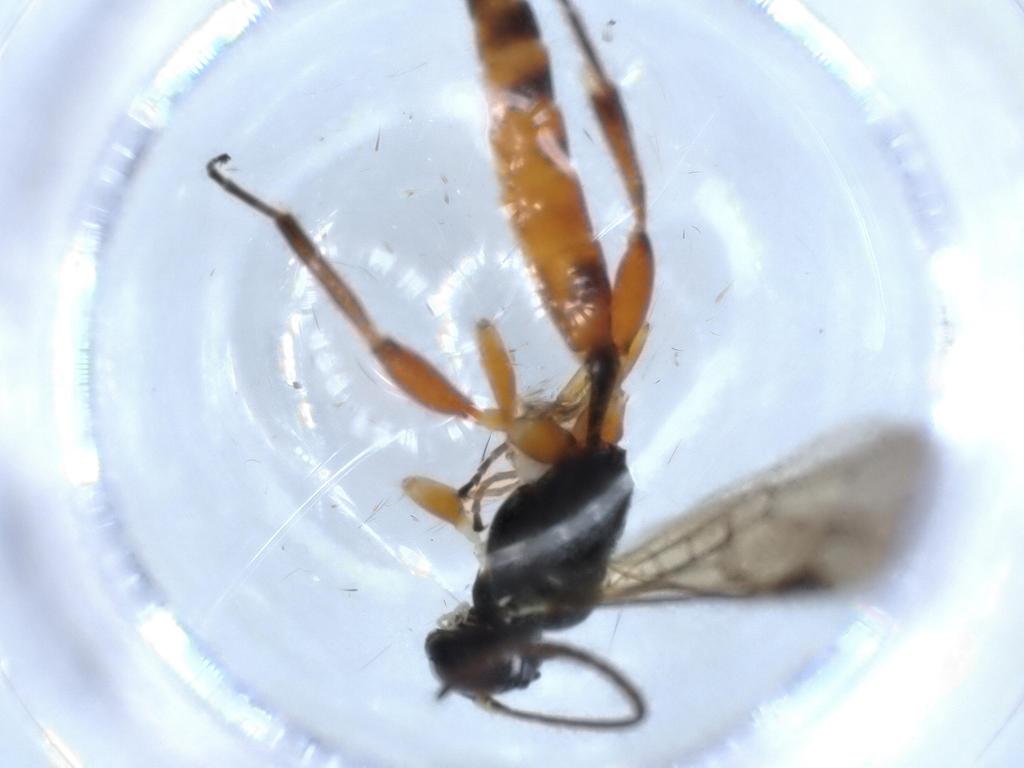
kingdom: Animalia
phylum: Arthropoda
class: Insecta
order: Hymenoptera
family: Ichneumonidae
